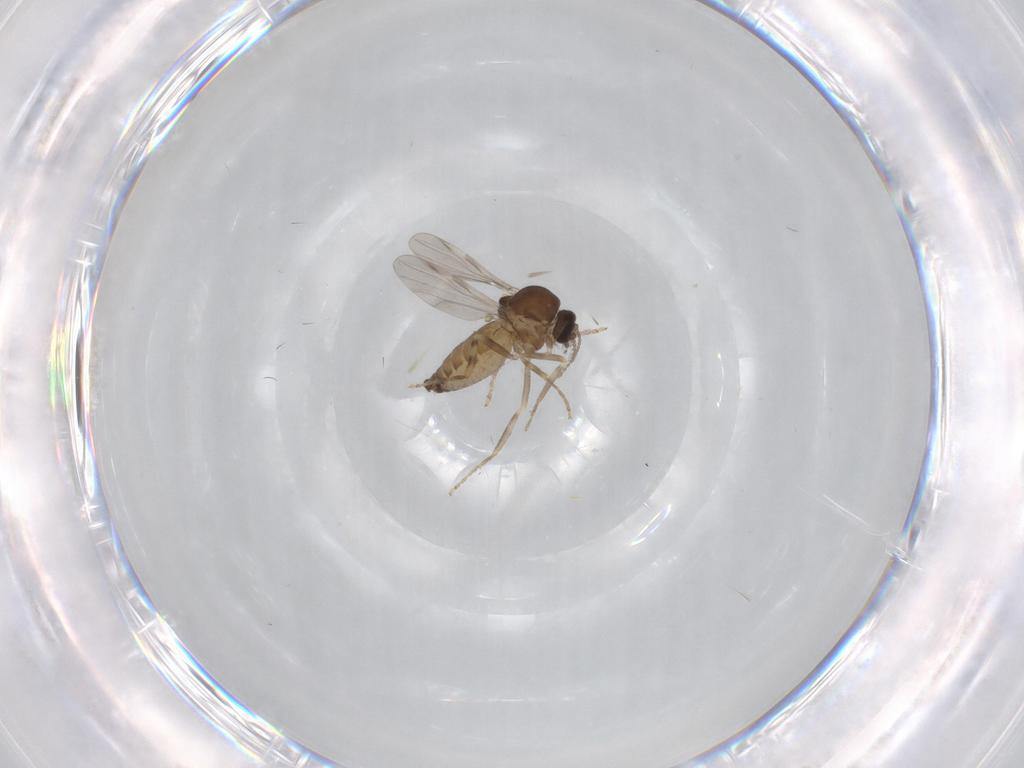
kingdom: Animalia
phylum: Arthropoda
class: Insecta
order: Diptera
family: Ceratopogonidae
